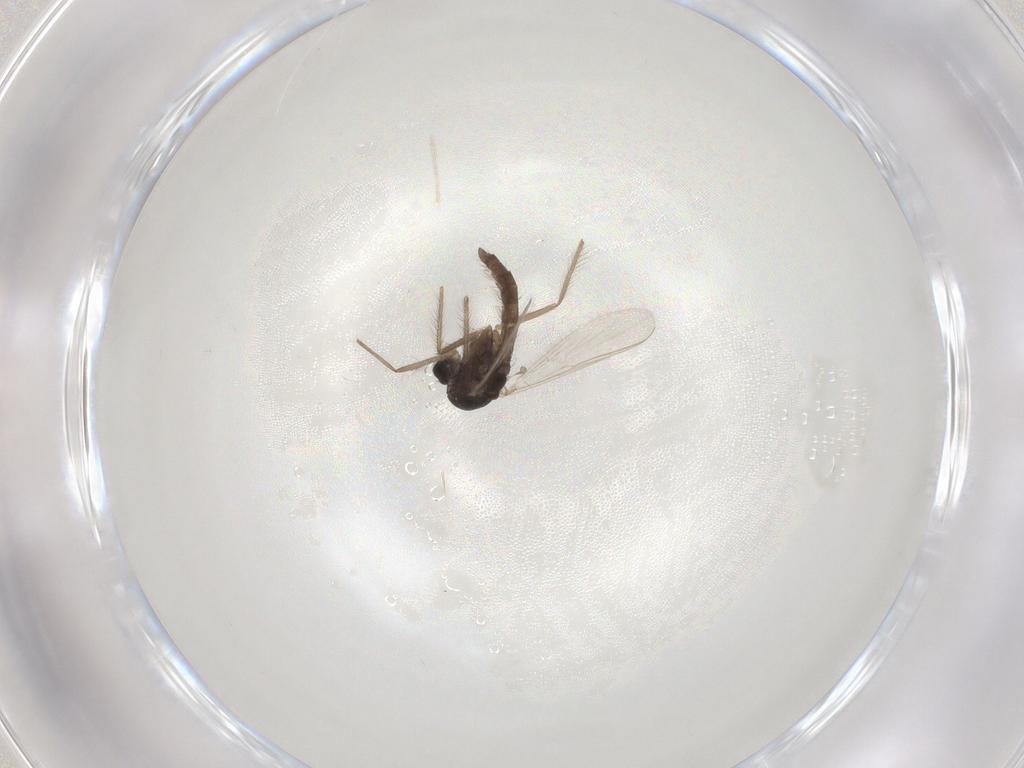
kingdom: Animalia
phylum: Arthropoda
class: Insecta
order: Diptera
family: Chironomidae
